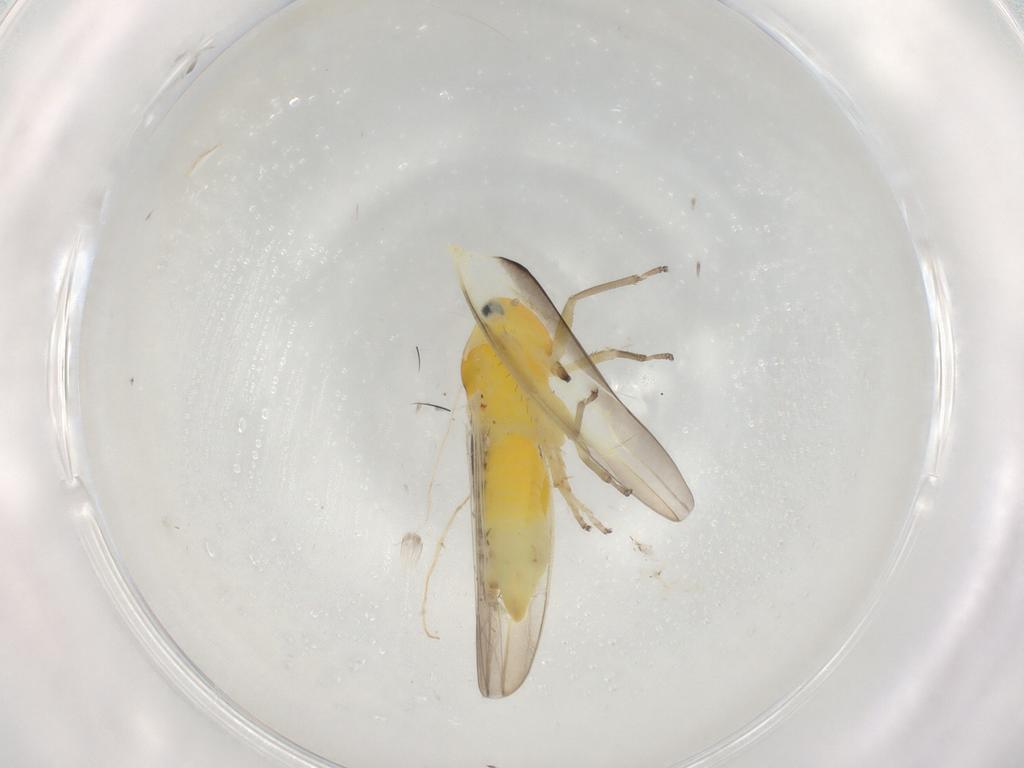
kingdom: Animalia
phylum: Arthropoda
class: Insecta
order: Hemiptera
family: Cicadellidae
